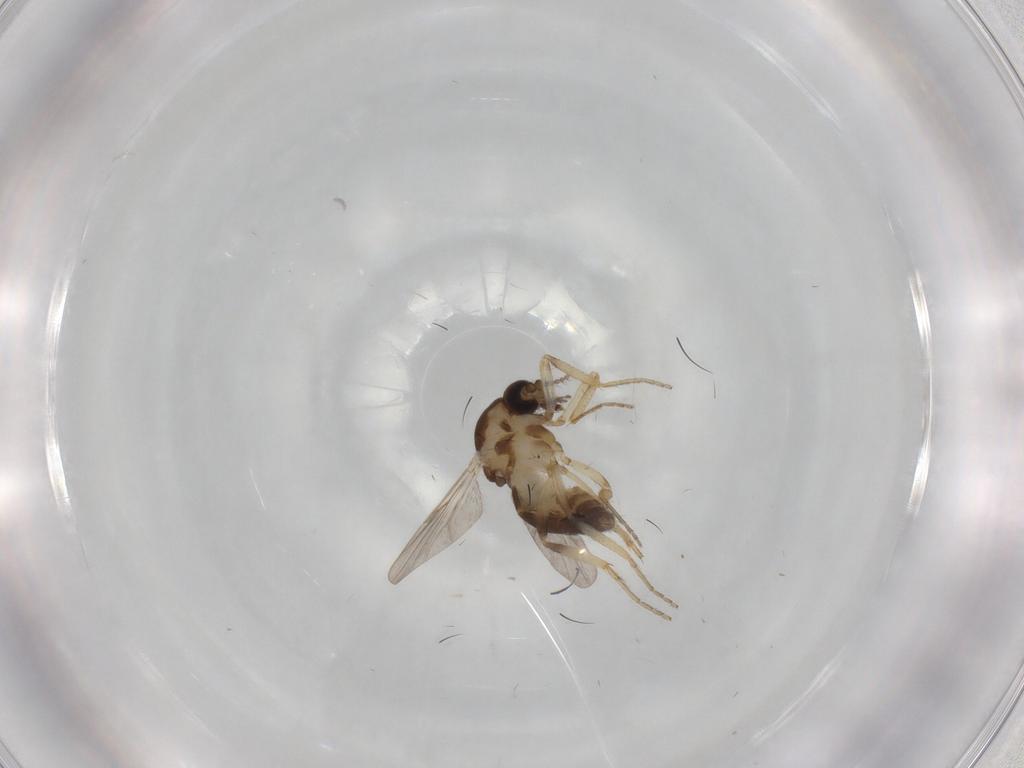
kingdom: Animalia
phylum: Arthropoda
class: Insecta
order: Diptera
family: Ceratopogonidae
